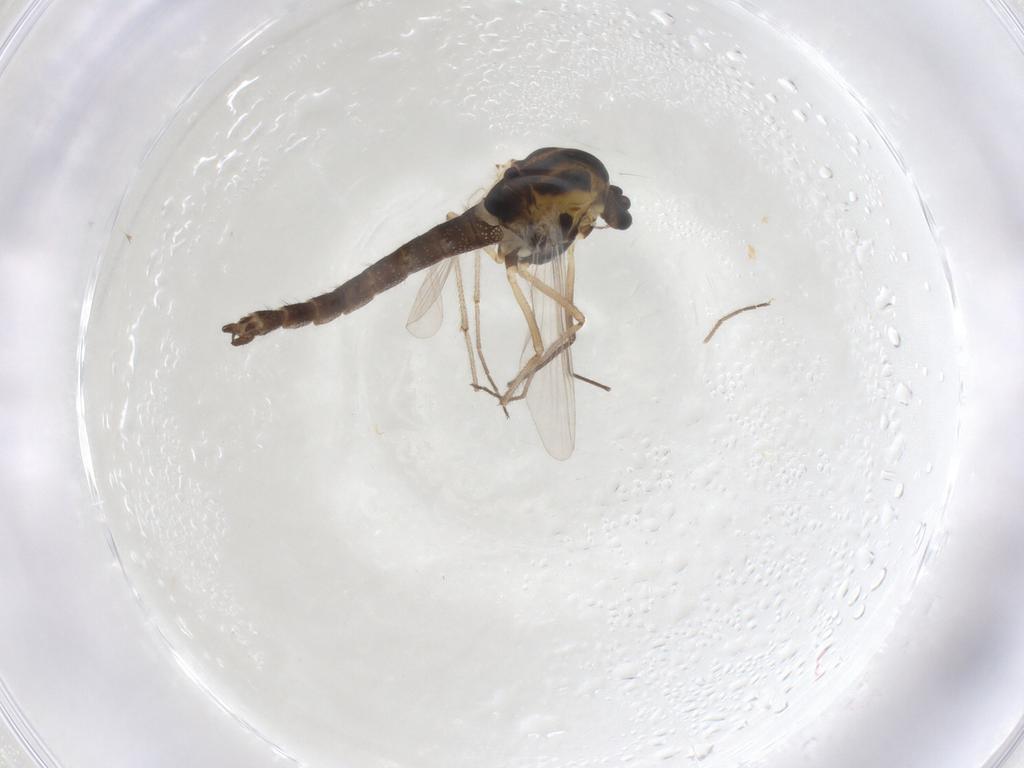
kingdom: Animalia
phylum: Arthropoda
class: Insecta
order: Diptera
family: Chironomidae
